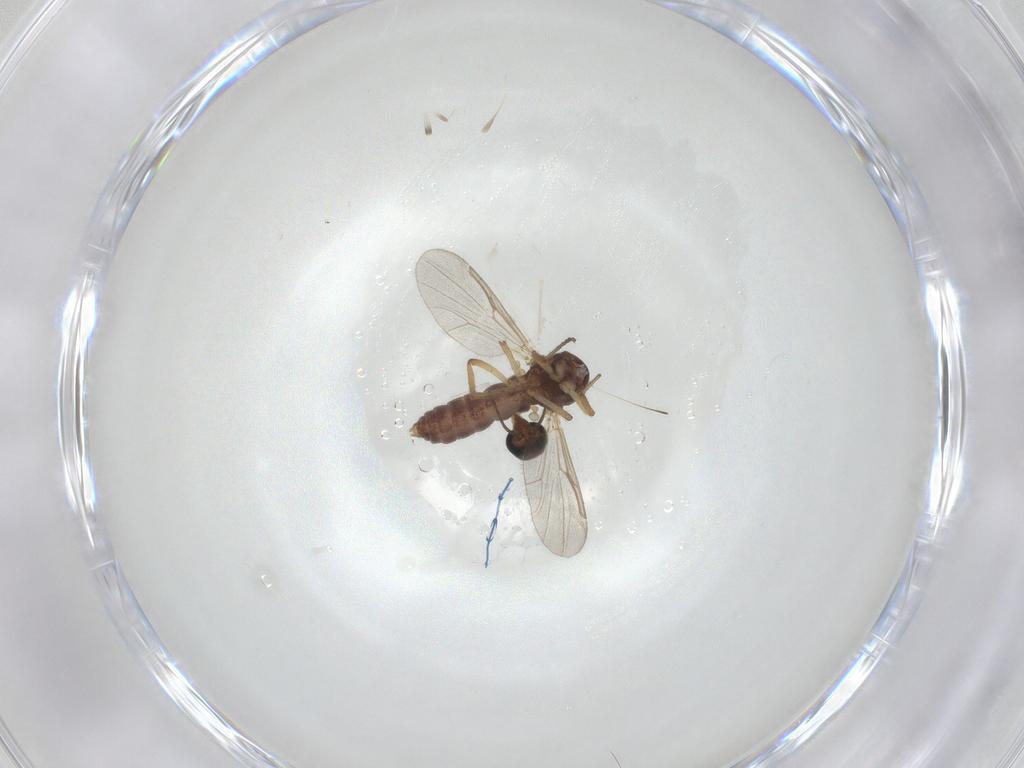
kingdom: Animalia
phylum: Arthropoda
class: Insecta
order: Diptera
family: Ceratopogonidae
